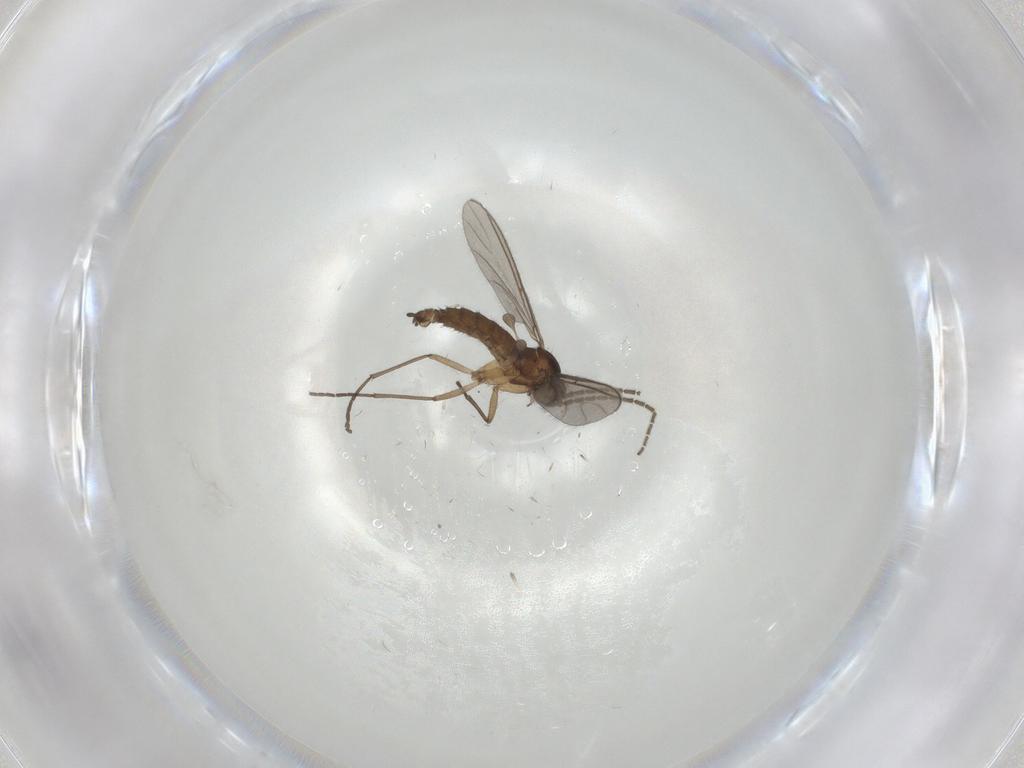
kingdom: Animalia
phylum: Arthropoda
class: Insecta
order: Diptera
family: Sciaridae
